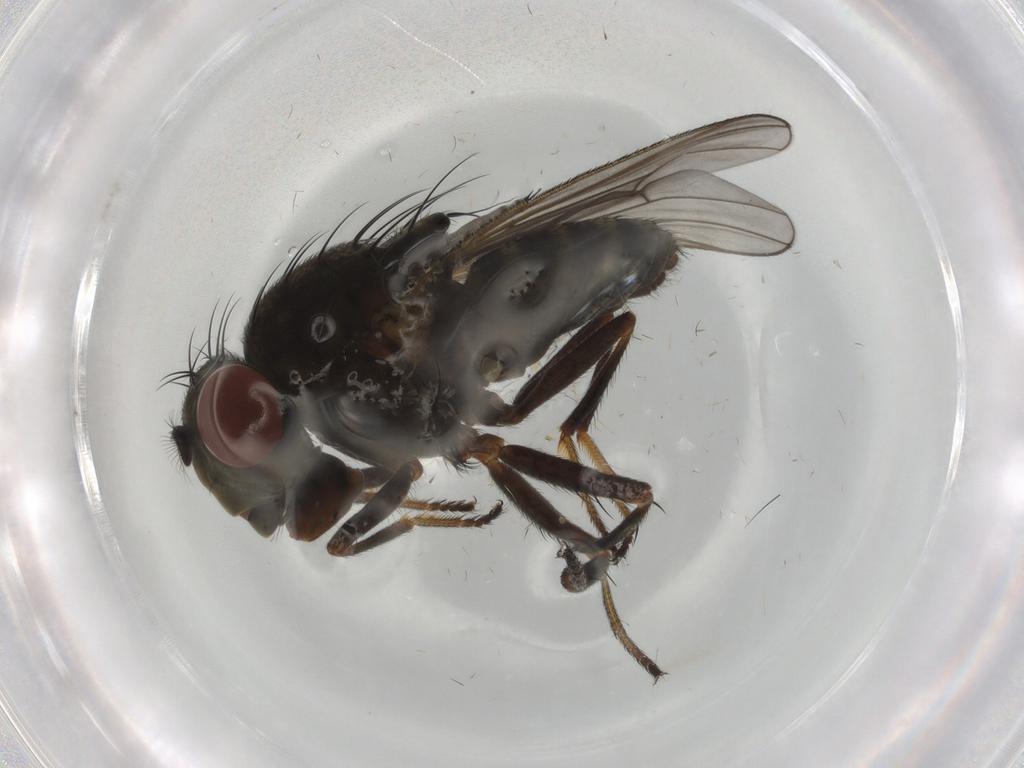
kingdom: Animalia
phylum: Arthropoda
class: Insecta
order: Diptera
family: Ephydridae
